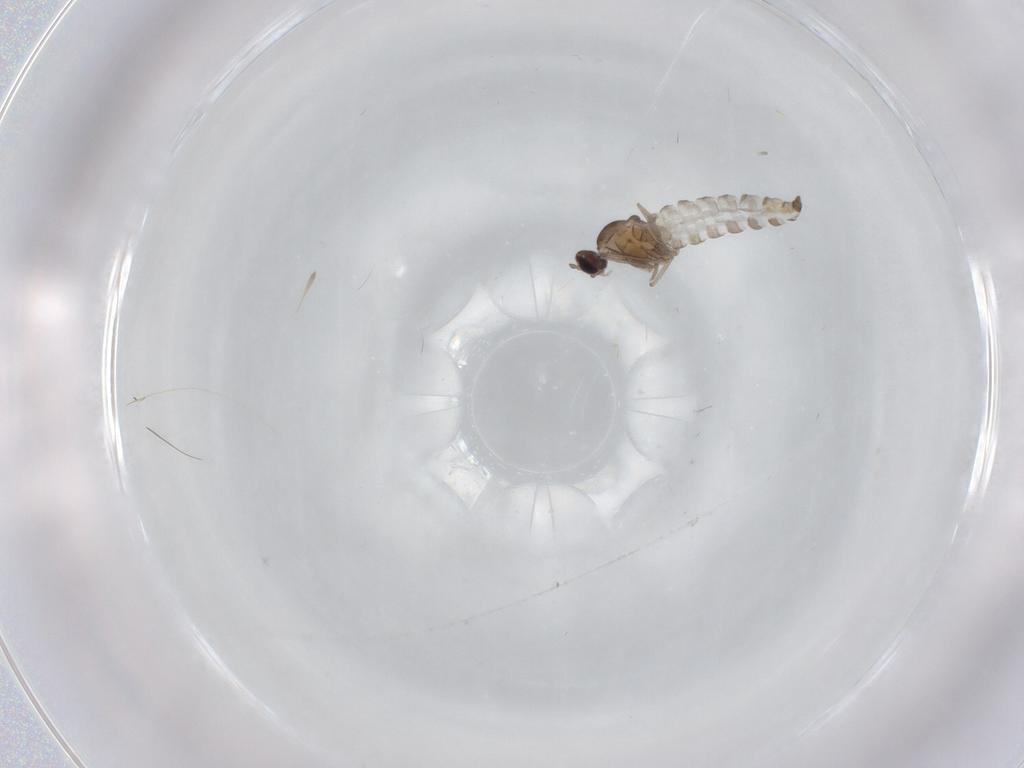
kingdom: Animalia
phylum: Arthropoda
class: Insecta
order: Diptera
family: Cecidomyiidae
